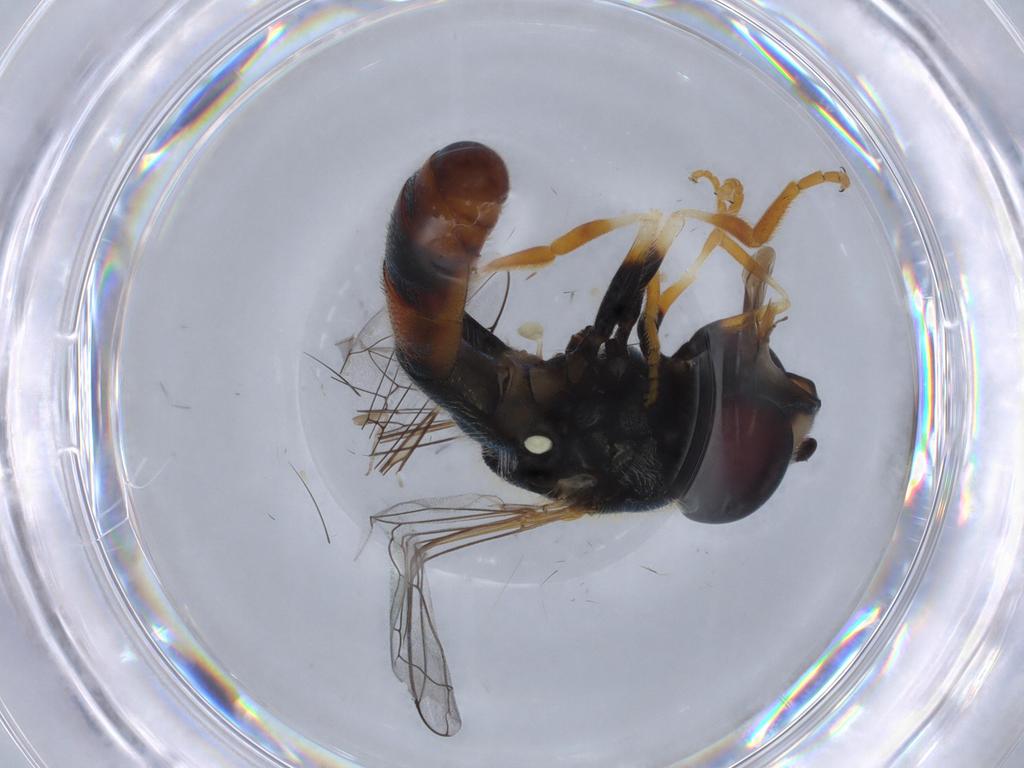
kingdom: Animalia
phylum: Arthropoda
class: Insecta
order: Diptera
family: Syrphidae
